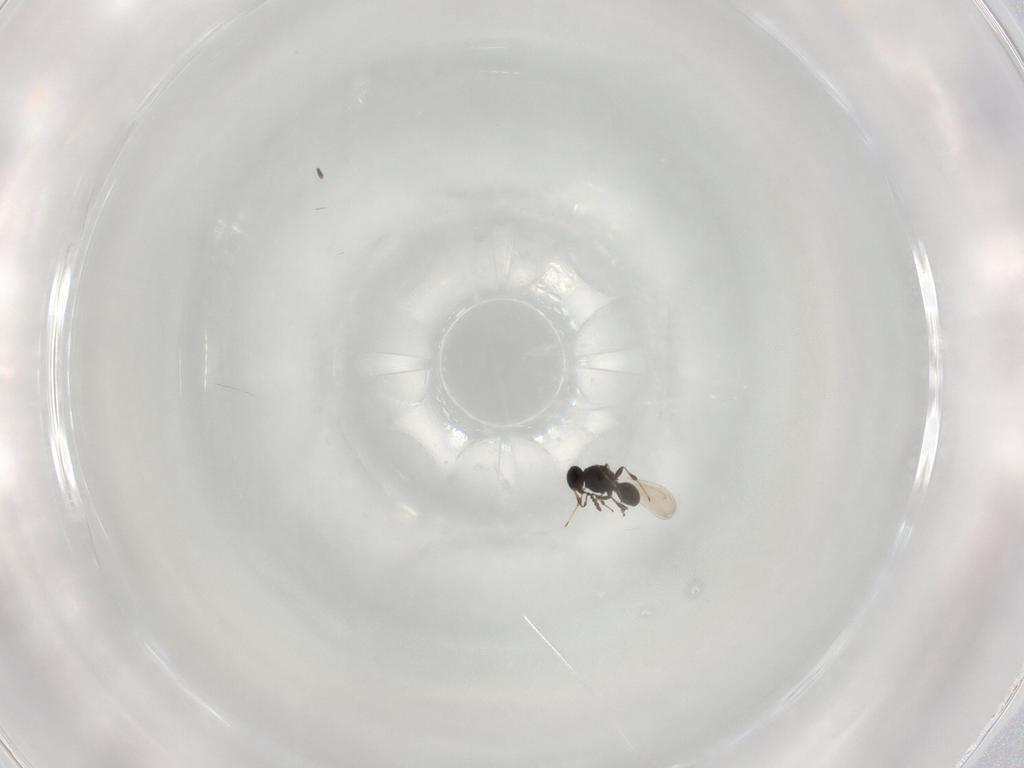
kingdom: Animalia
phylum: Arthropoda
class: Insecta
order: Hymenoptera
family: Platygastridae
